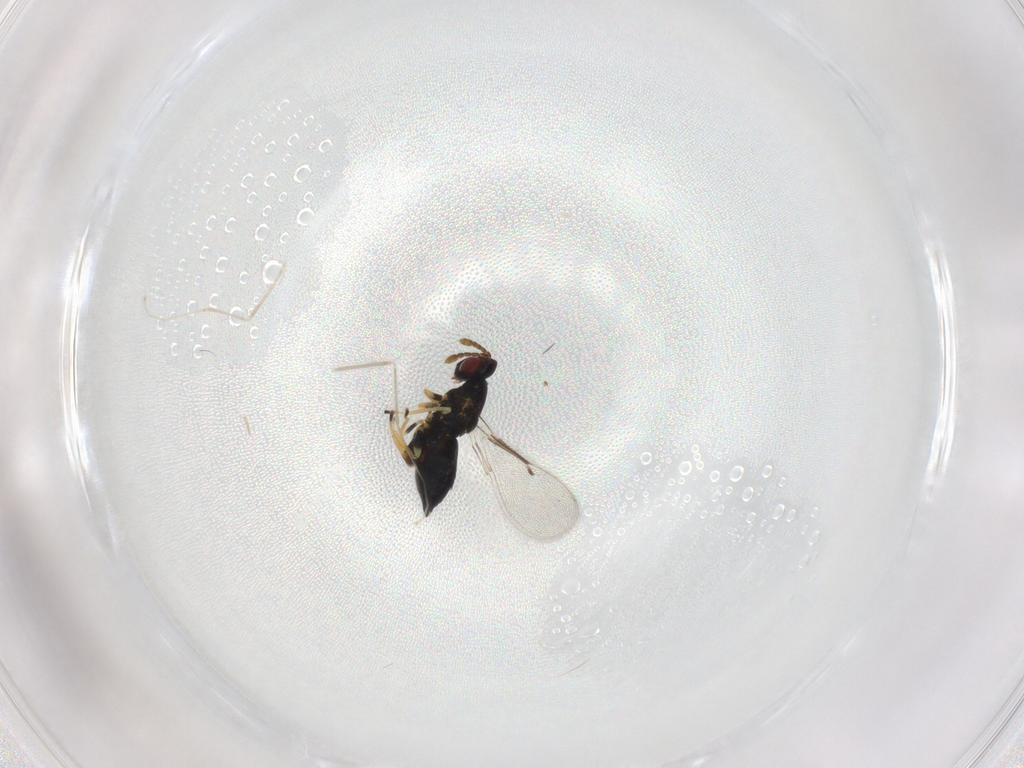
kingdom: Animalia
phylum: Arthropoda
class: Insecta
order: Hymenoptera
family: Eulophidae
